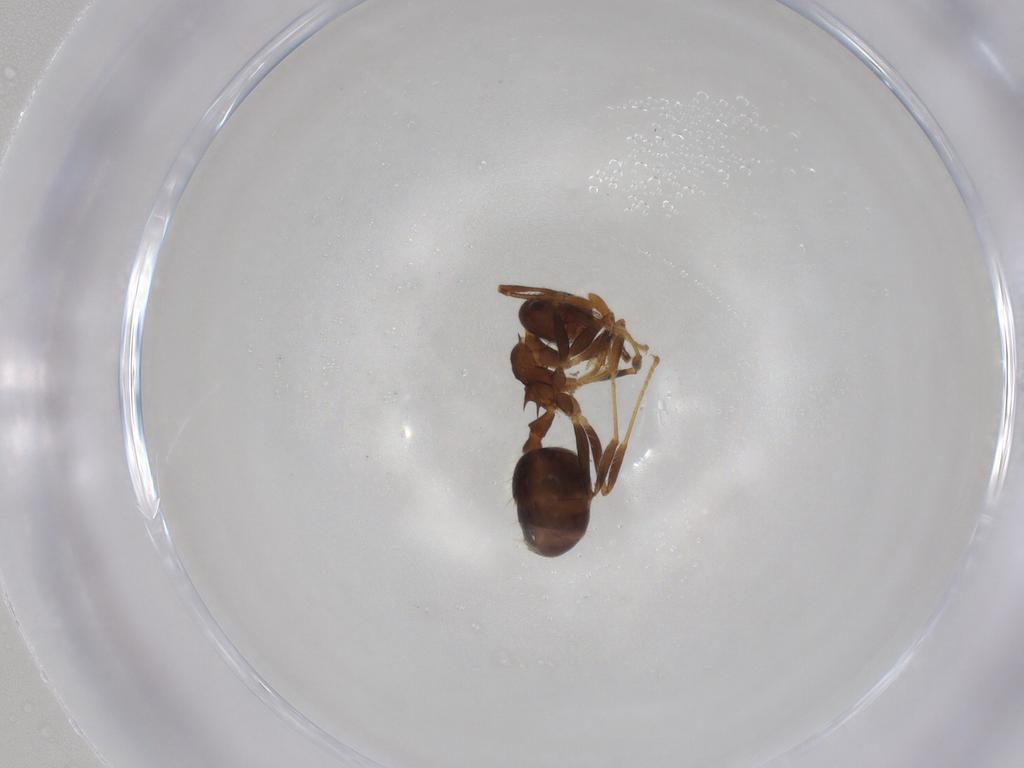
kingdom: Animalia
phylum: Arthropoda
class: Insecta
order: Hymenoptera
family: Formicidae
